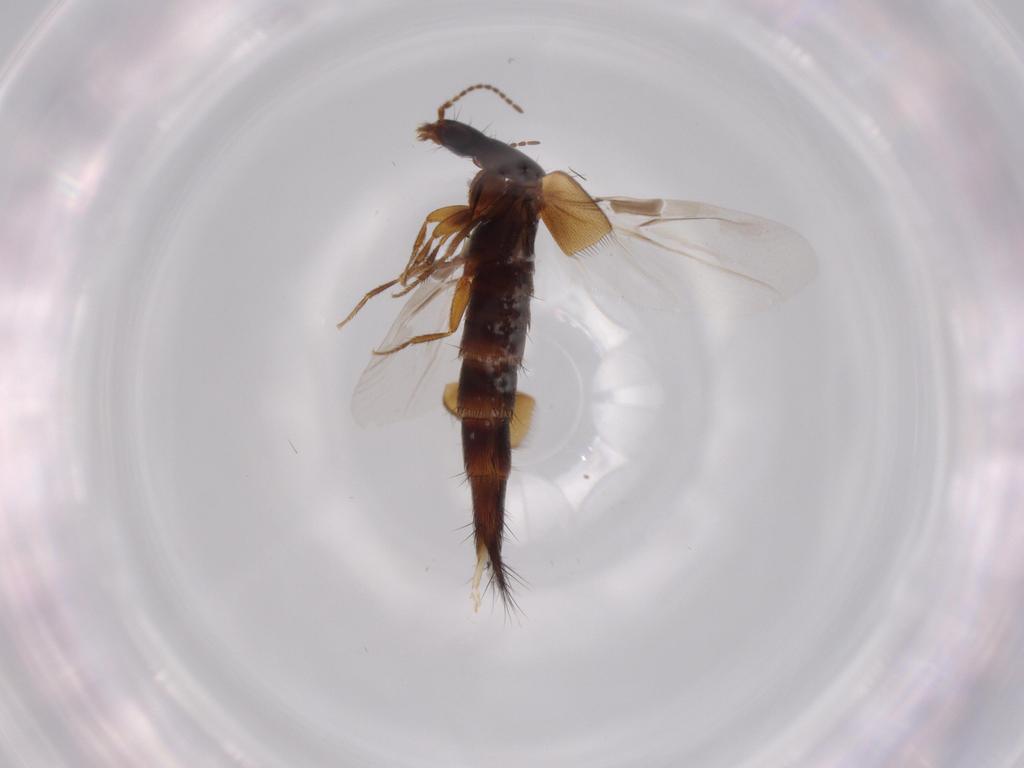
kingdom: Animalia
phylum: Arthropoda
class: Insecta
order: Coleoptera
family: Staphylinidae
